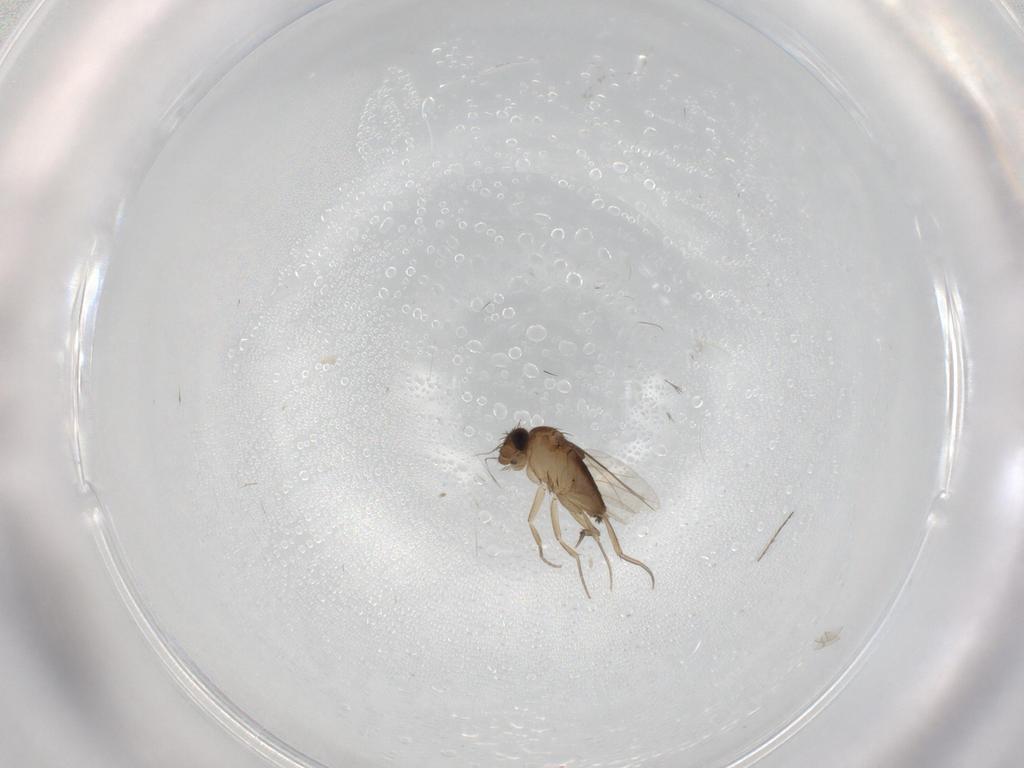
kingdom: Animalia
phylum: Arthropoda
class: Insecta
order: Diptera
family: Phoridae
